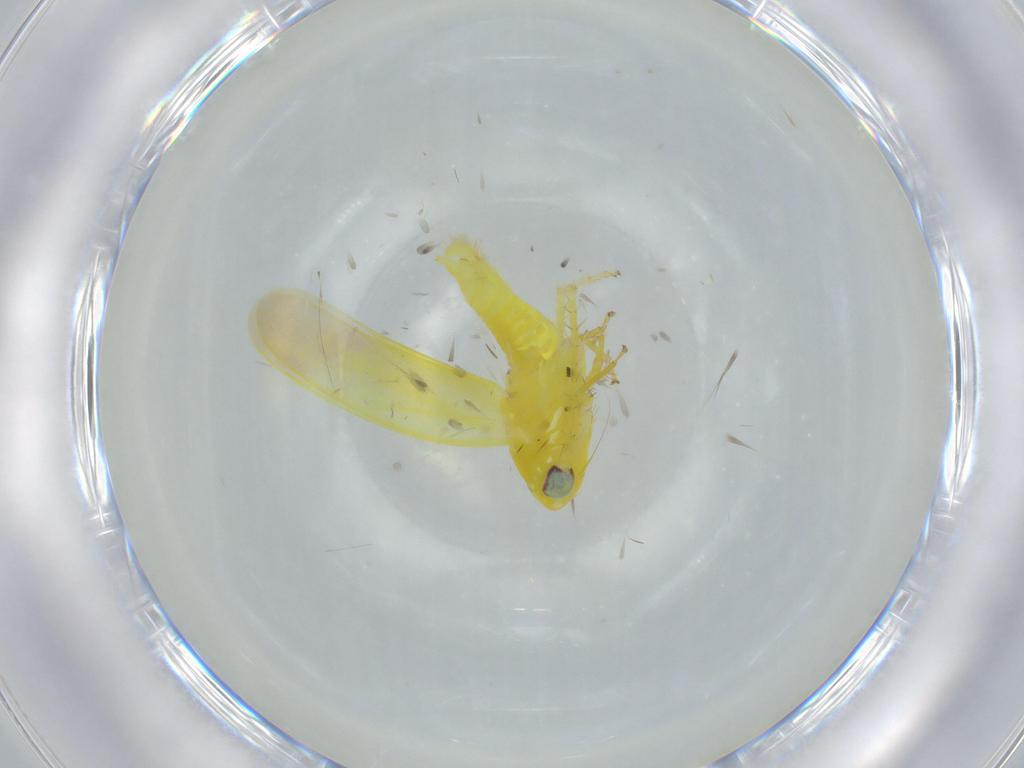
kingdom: Animalia
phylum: Arthropoda
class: Insecta
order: Hemiptera
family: Cicadellidae
